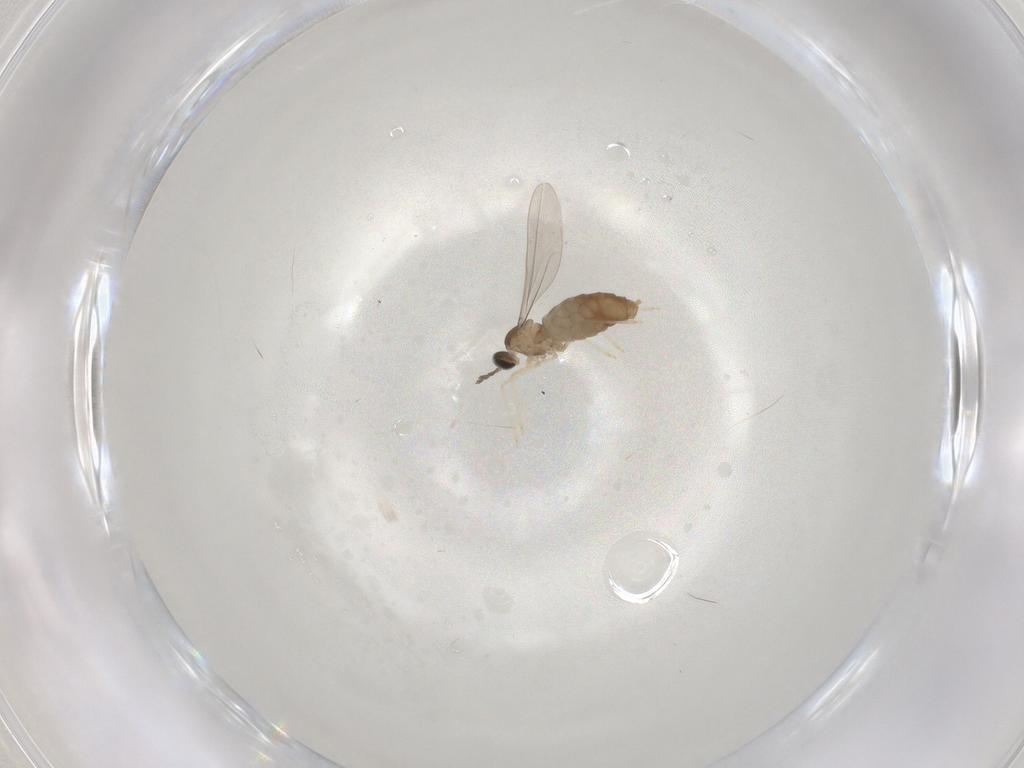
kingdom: Animalia
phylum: Arthropoda
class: Insecta
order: Diptera
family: Cecidomyiidae
